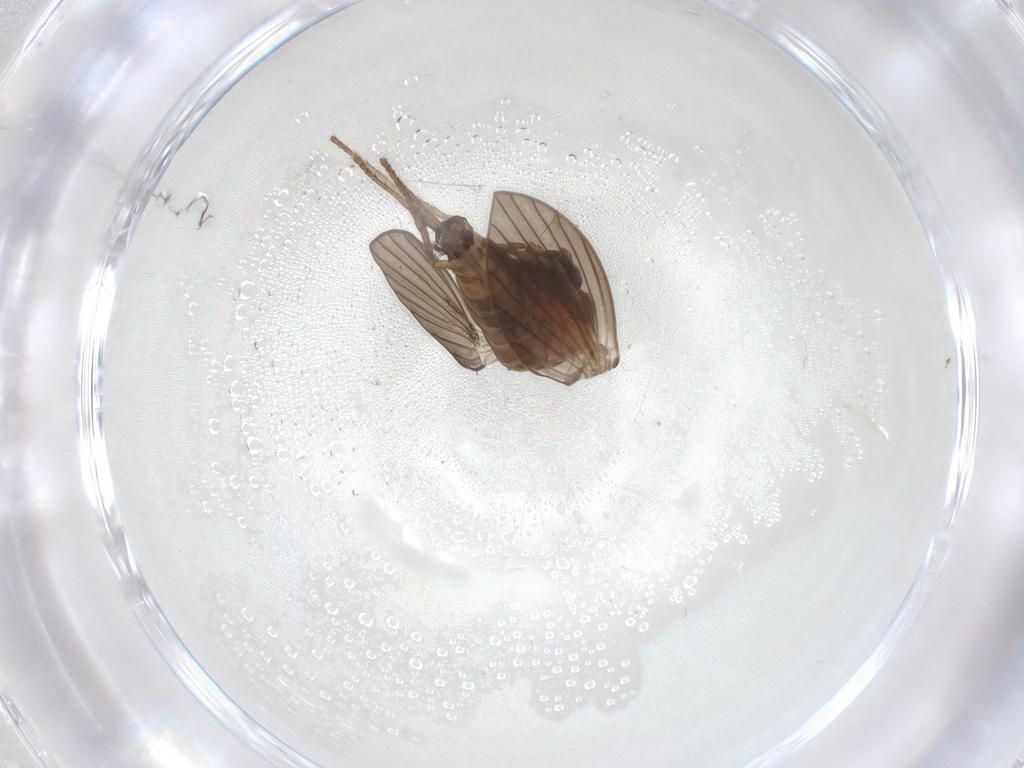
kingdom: Animalia
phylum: Arthropoda
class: Insecta
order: Diptera
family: Psychodidae
